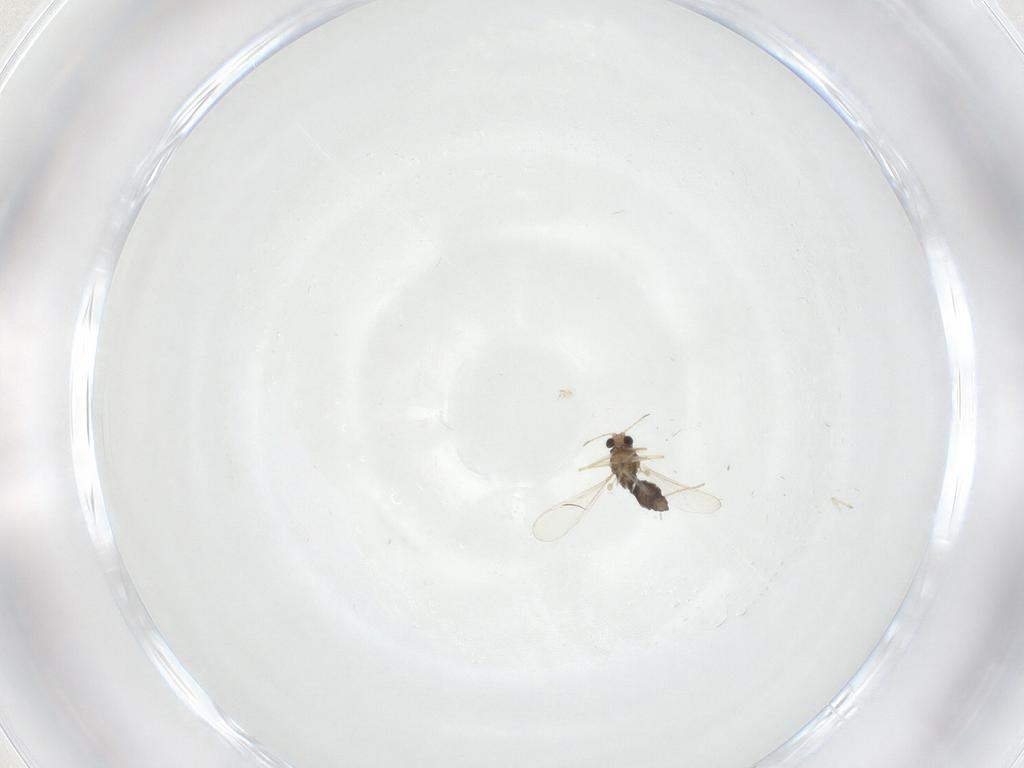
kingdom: Animalia
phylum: Arthropoda
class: Insecta
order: Diptera
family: Chironomidae
